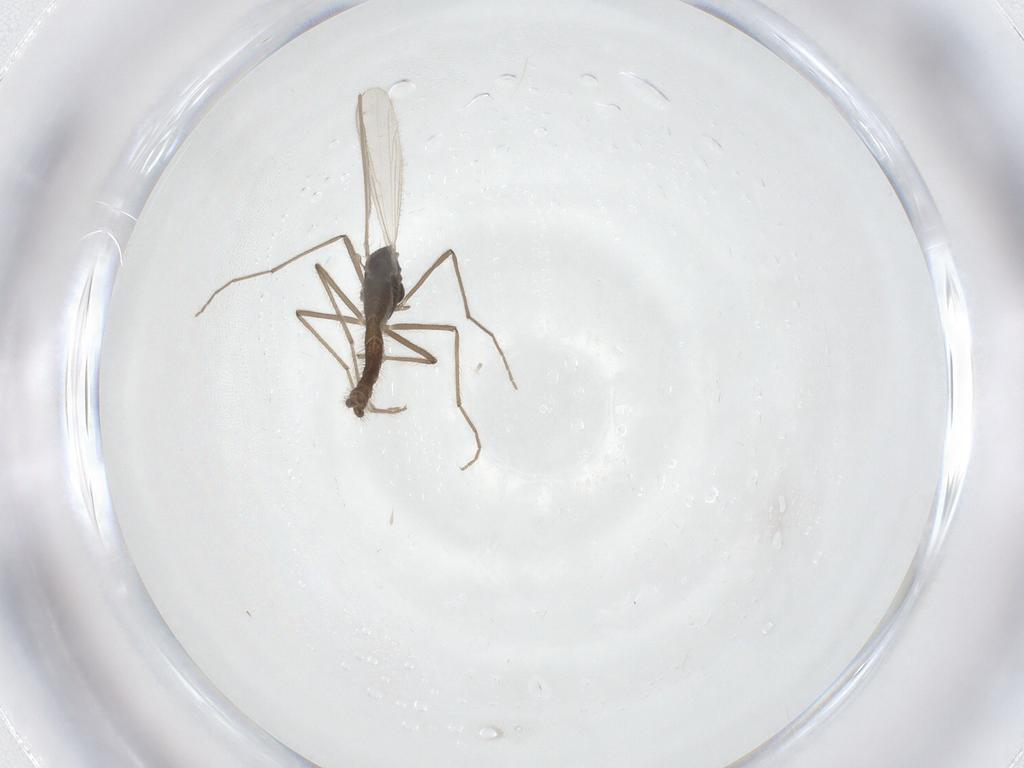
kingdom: Animalia
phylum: Arthropoda
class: Insecta
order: Diptera
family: Chironomidae
